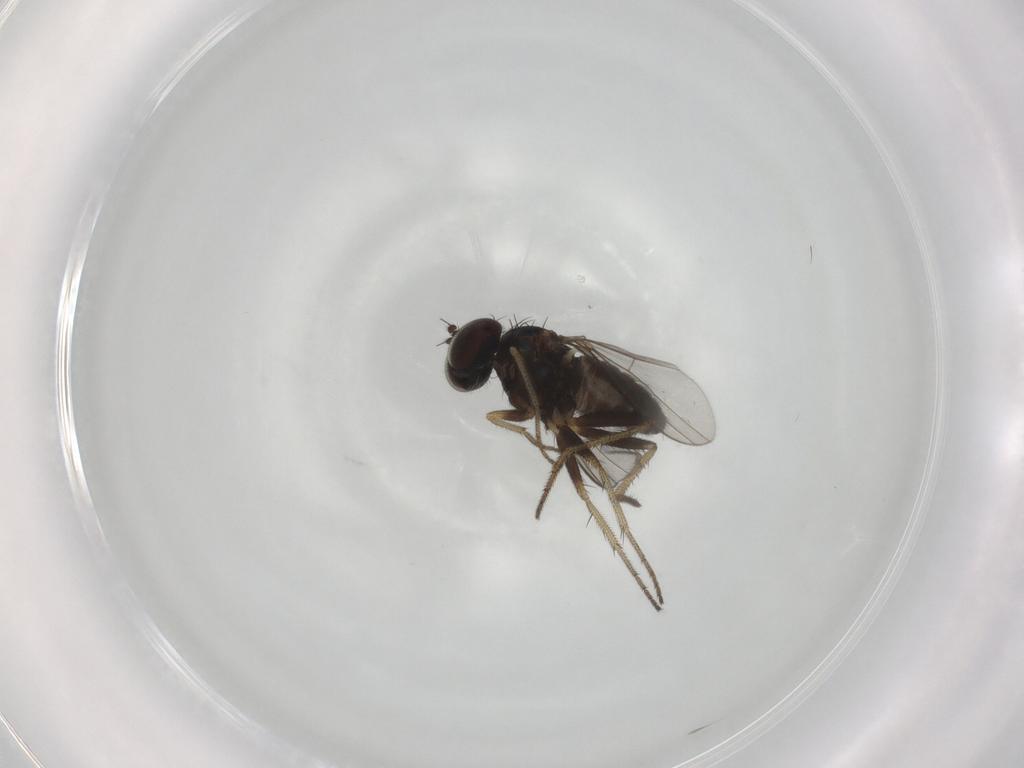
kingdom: Animalia
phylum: Arthropoda
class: Insecta
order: Diptera
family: Dolichopodidae
